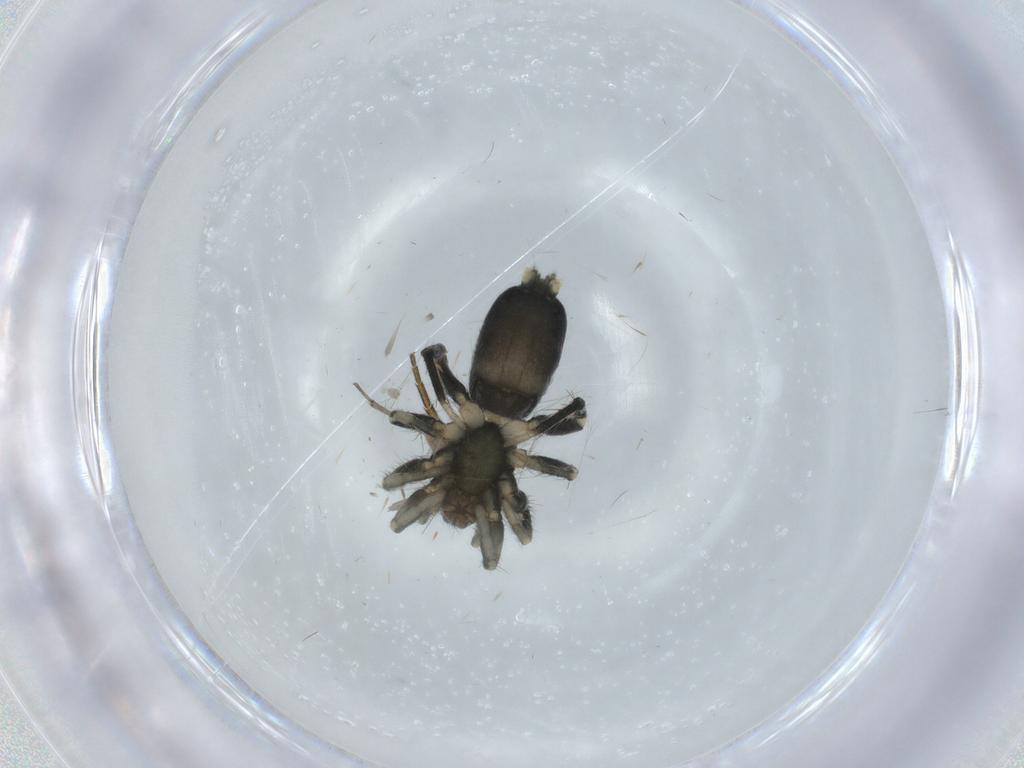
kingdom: Animalia
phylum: Arthropoda
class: Arachnida
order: Araneae
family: Gnaphosidae
